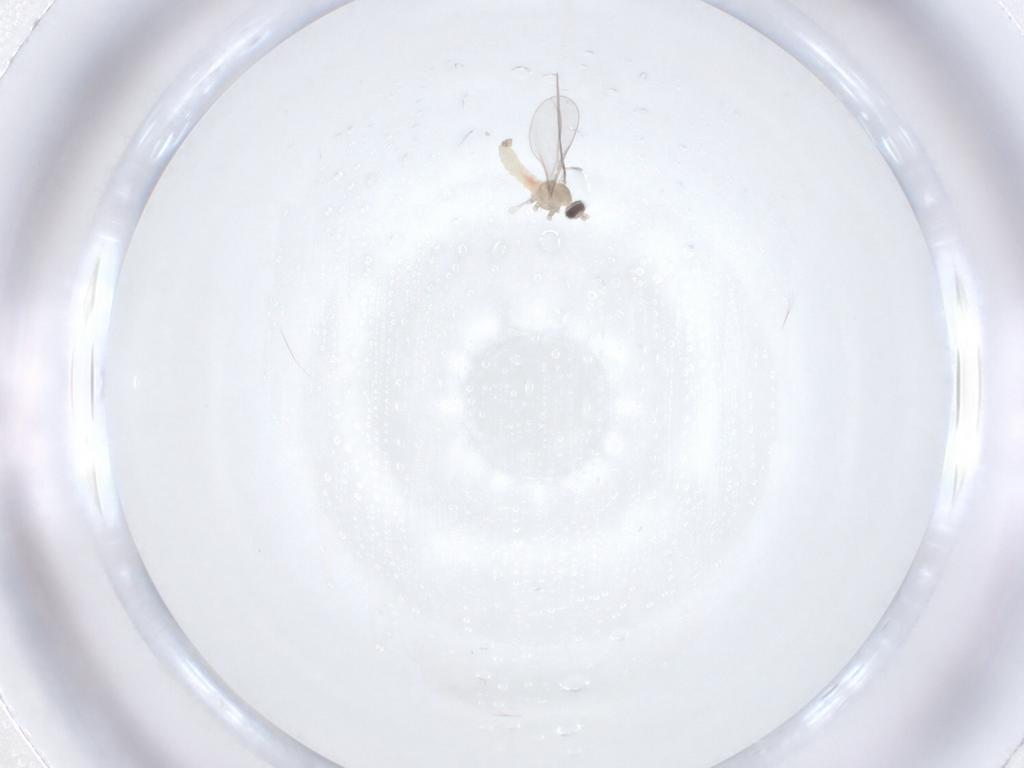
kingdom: Animalia
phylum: Arthropoda
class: Insecta
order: Diptera
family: Cecidomyiidae
